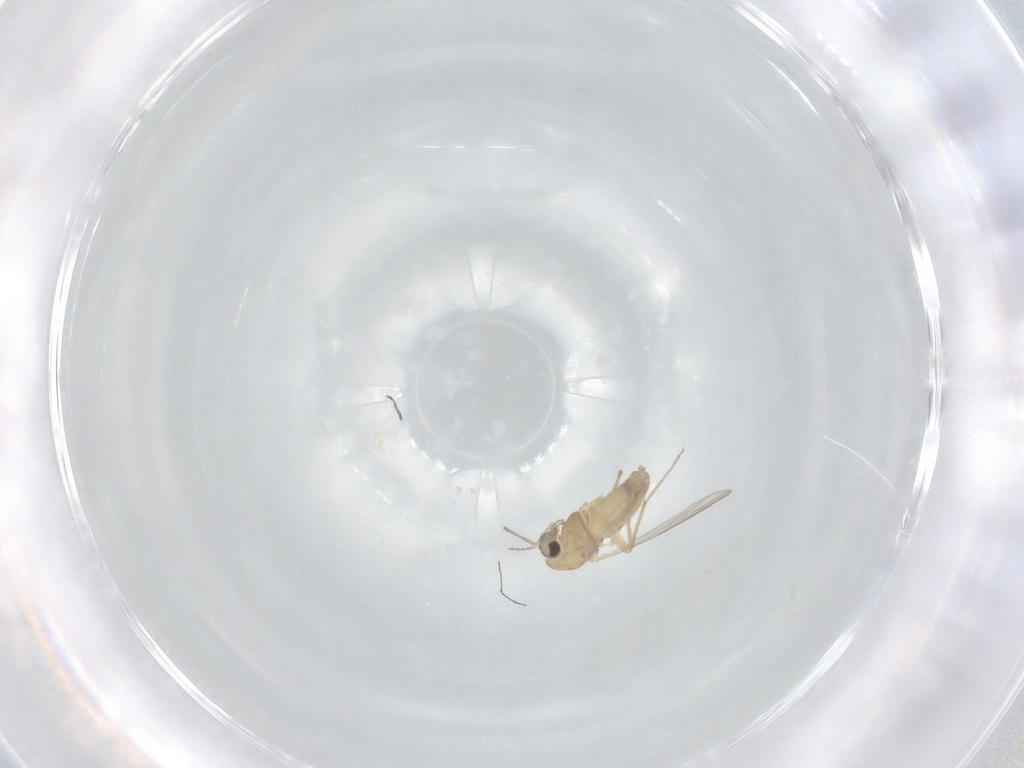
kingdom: Animalia
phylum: Arthropoda
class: Insecta
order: Diptera
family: Chironomidae
